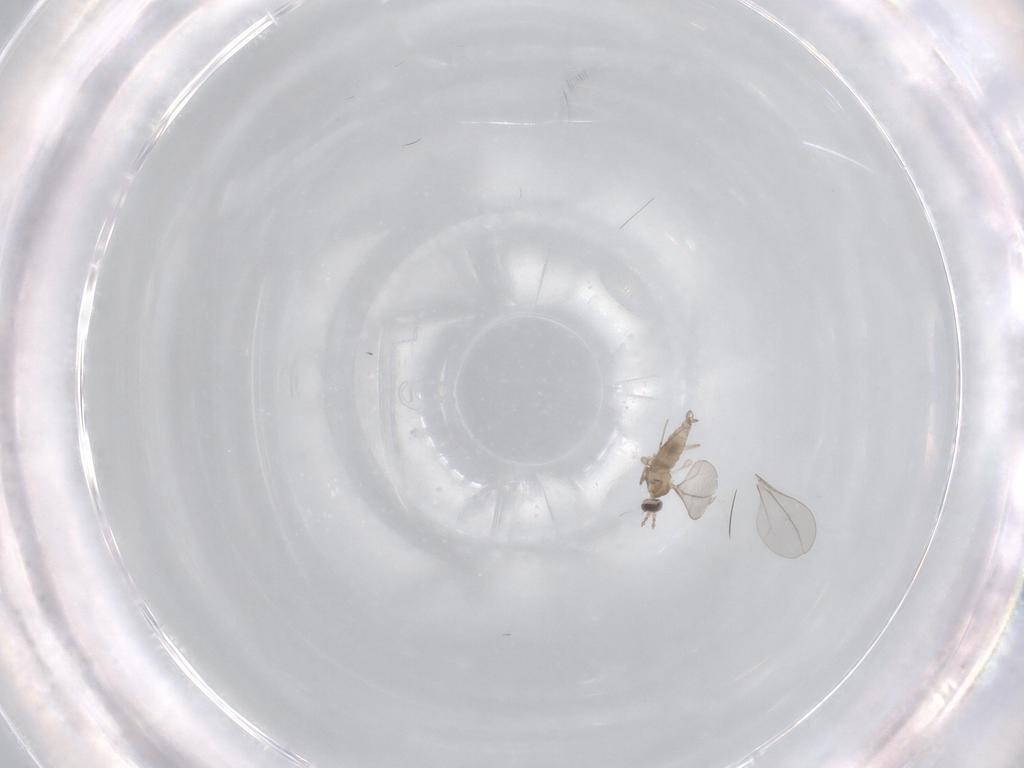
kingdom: Animalia
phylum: Arthropoda
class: Insecta
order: Diptera
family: Cecidomyiidae
